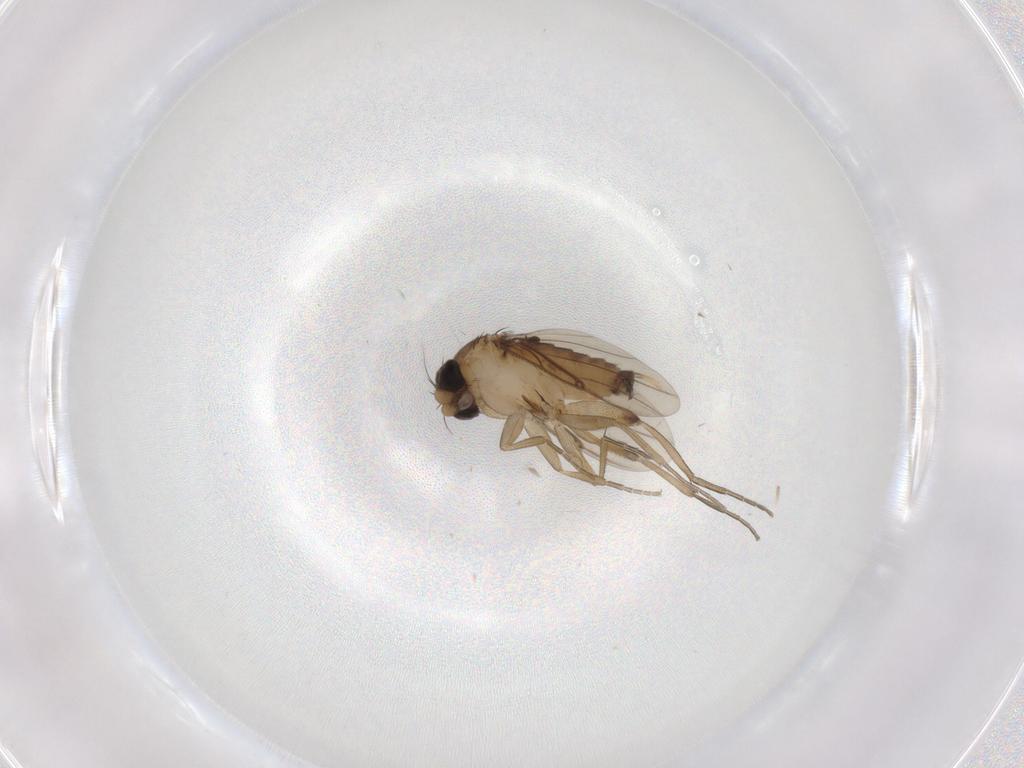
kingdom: Animalia
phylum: Arthropoda
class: Insecta
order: Diptera
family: Phoridae
